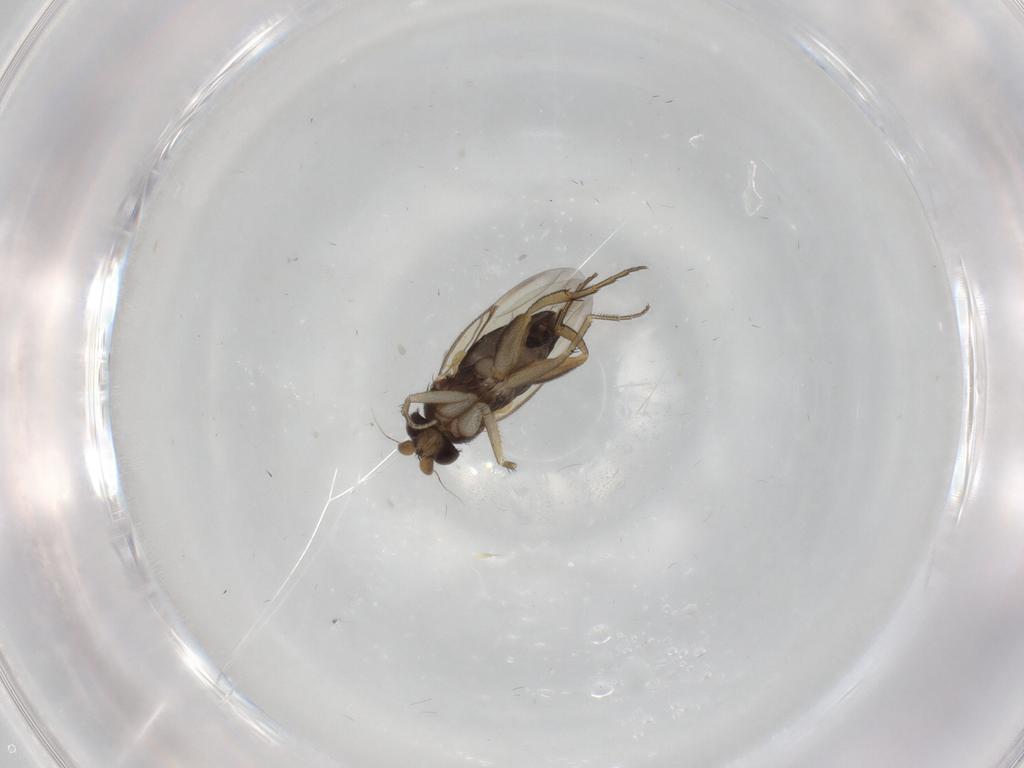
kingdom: Animalia
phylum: Arthropoda
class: Insecta
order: Diptera
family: Phoridae
